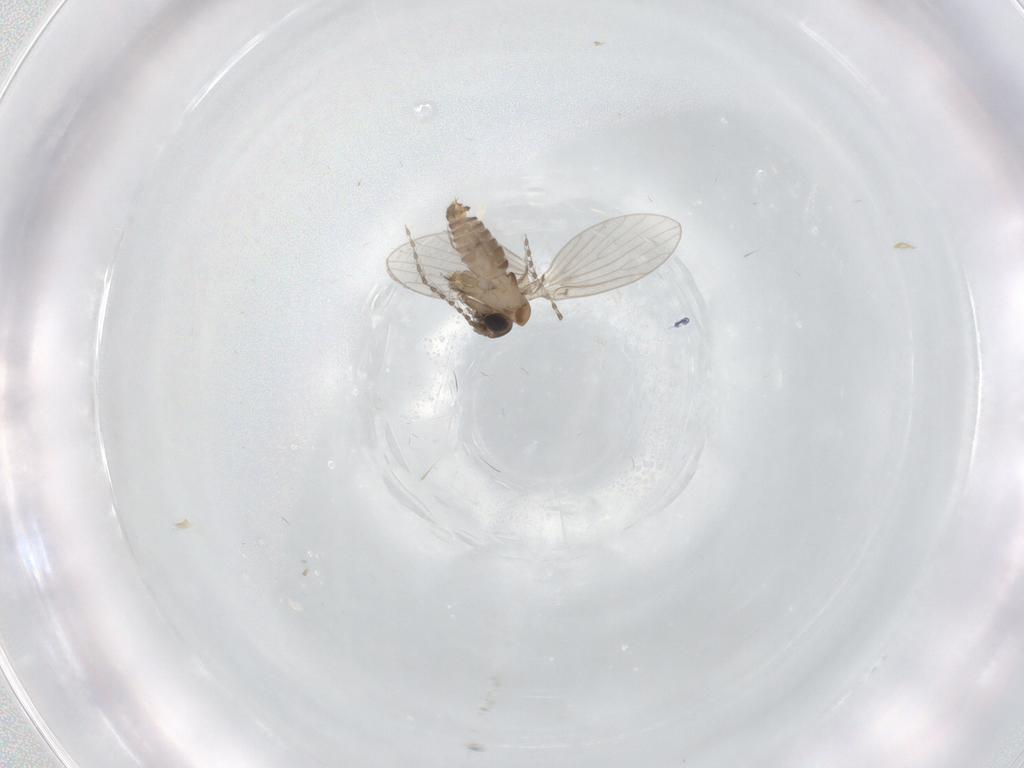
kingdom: Animalia
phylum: Arthropoda
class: Insecta
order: Diptera
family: Psychodidae
